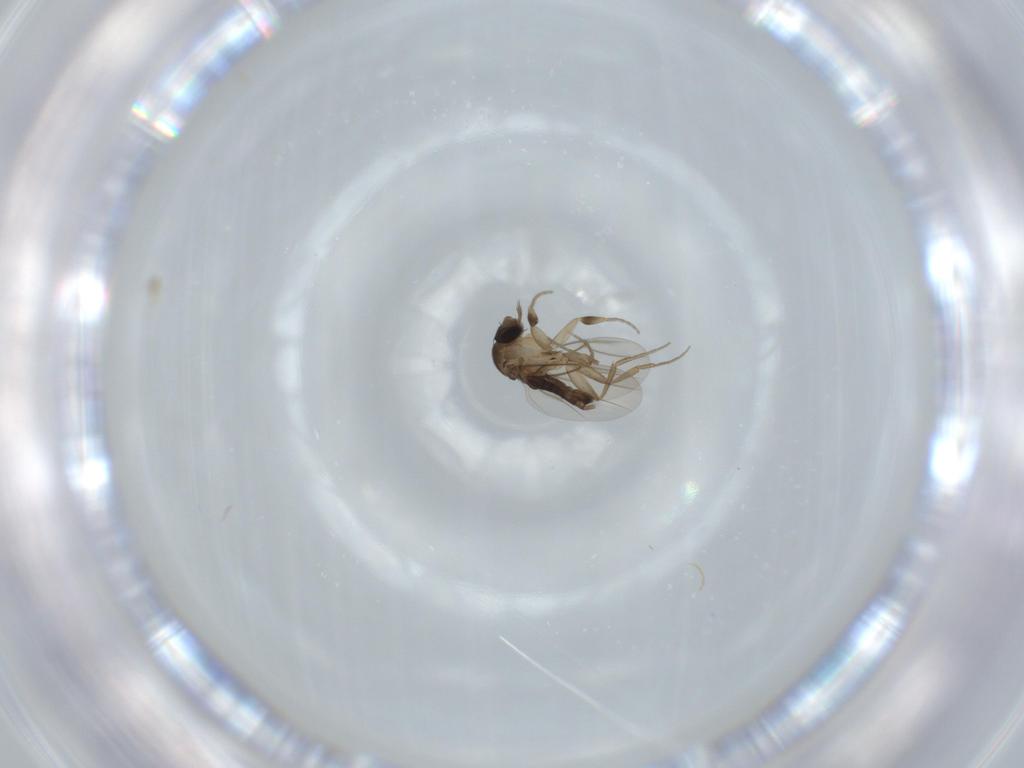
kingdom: Animalia
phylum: Arthropoda
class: Insecta
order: Diptera
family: Phoridae
